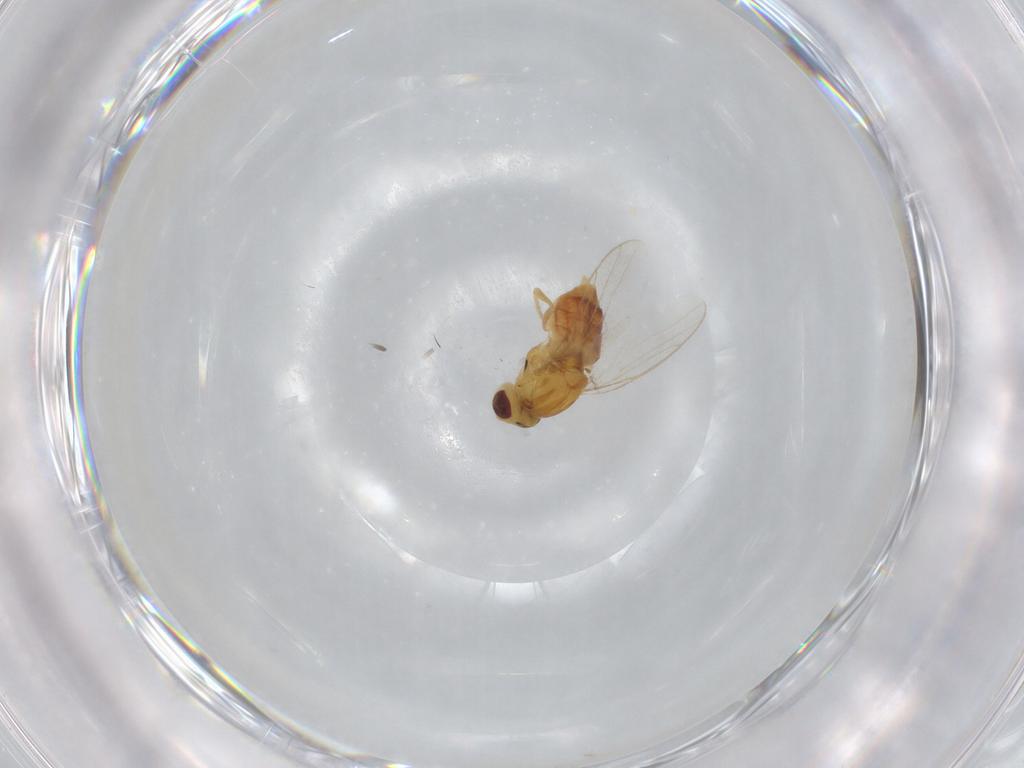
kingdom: Animalia
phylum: Arthropoda
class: Insecta
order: Diptera
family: Chloropidae
